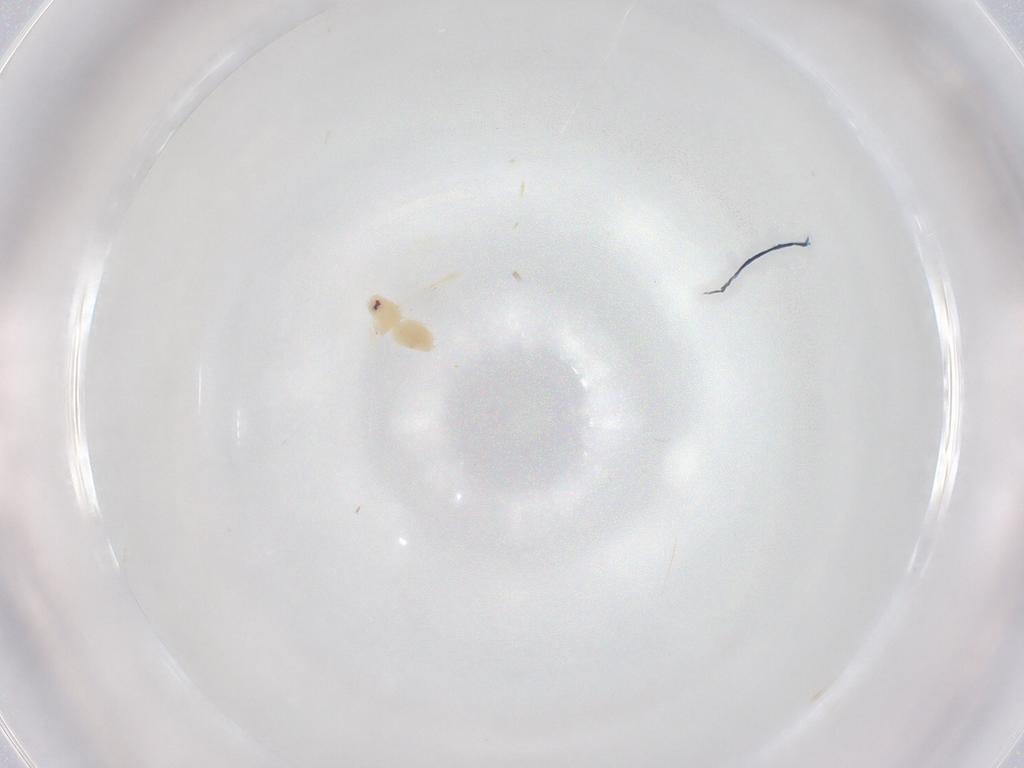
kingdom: Animalia
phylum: Arthropoda
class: Insecta
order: Hemiptera
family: Aleyrodidae
